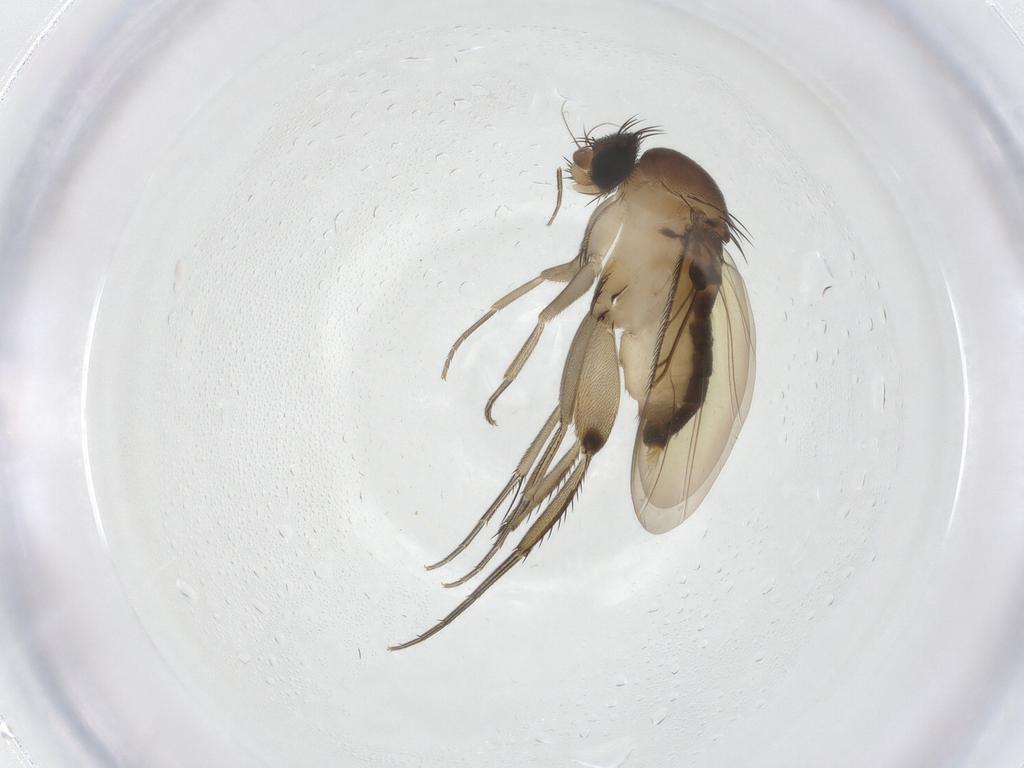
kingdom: Animalia
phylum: Arthropoda
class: Insecta
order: Diptera
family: Phoridae
